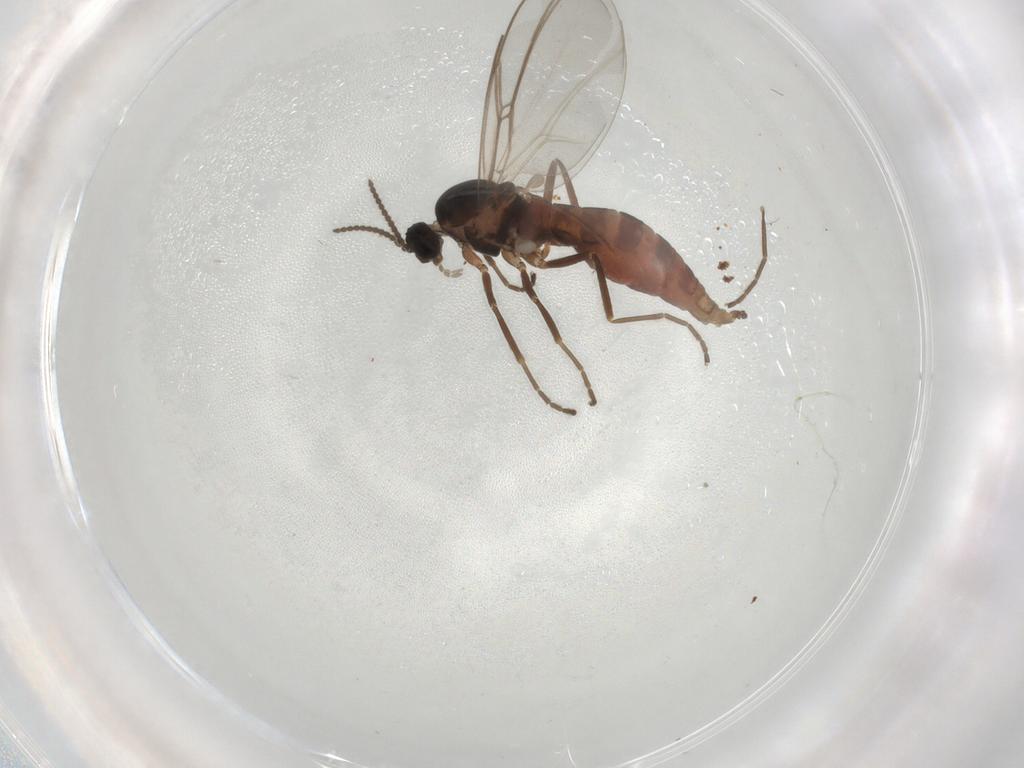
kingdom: Animalia
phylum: Arthropoda
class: Insecta
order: Diptera
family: Cecidomyiidae
